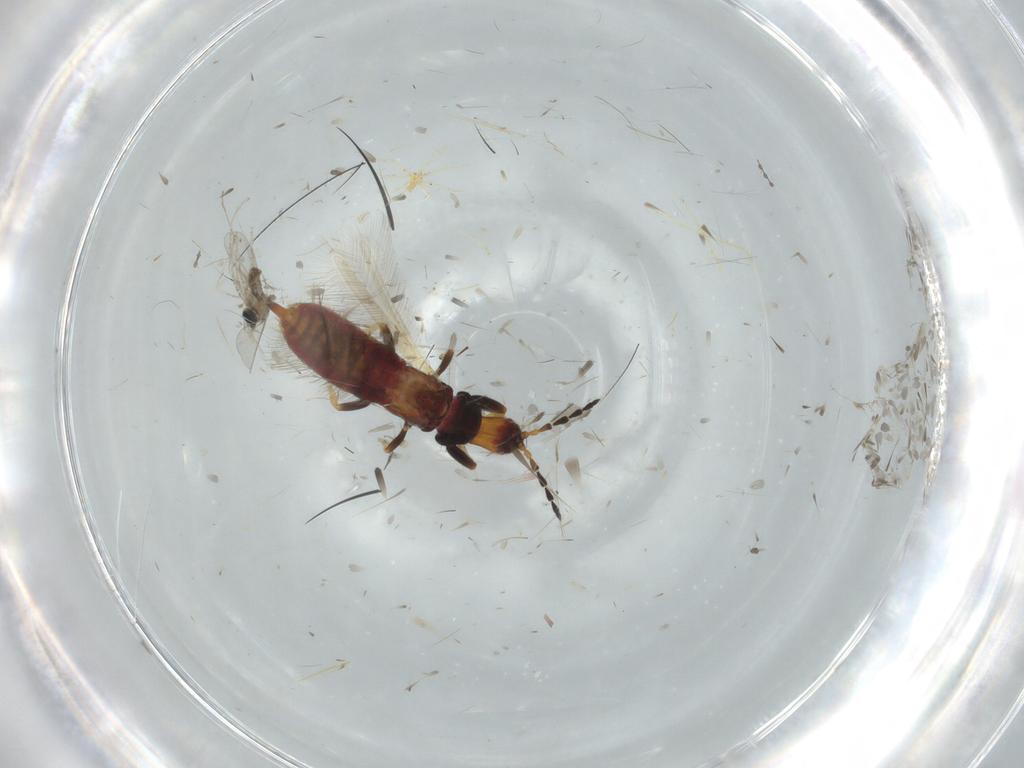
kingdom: Animalia
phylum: Arthropoda
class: Insecta
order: Diptera
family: Cecidomyiidae
